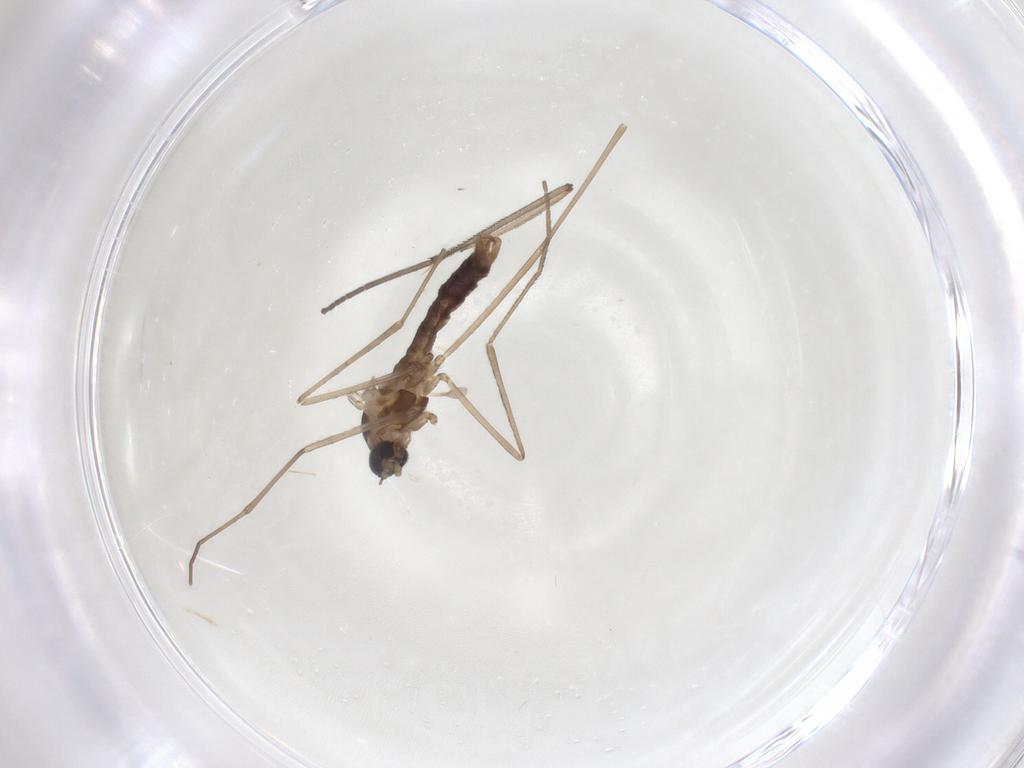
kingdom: Animalia
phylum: Arthropoda
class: Insecta
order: Diptera
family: Cecidomyiidae
